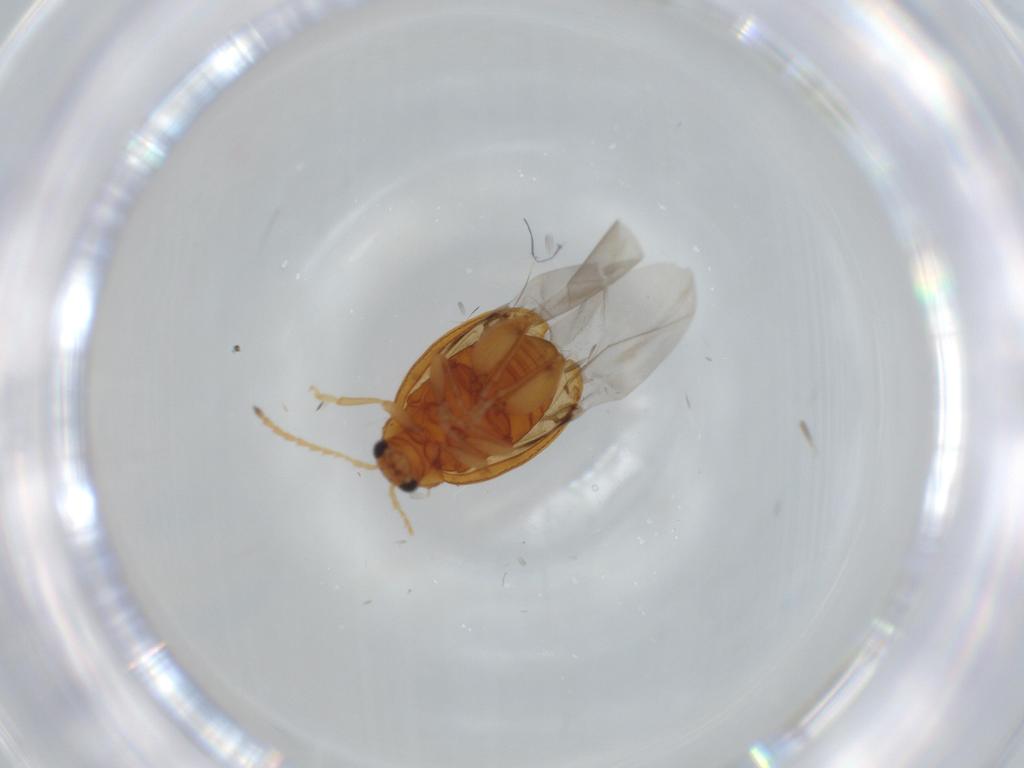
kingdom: Animalia
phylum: Arthropoda
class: Insecta
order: Coleoptera
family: Chrysomelidae
